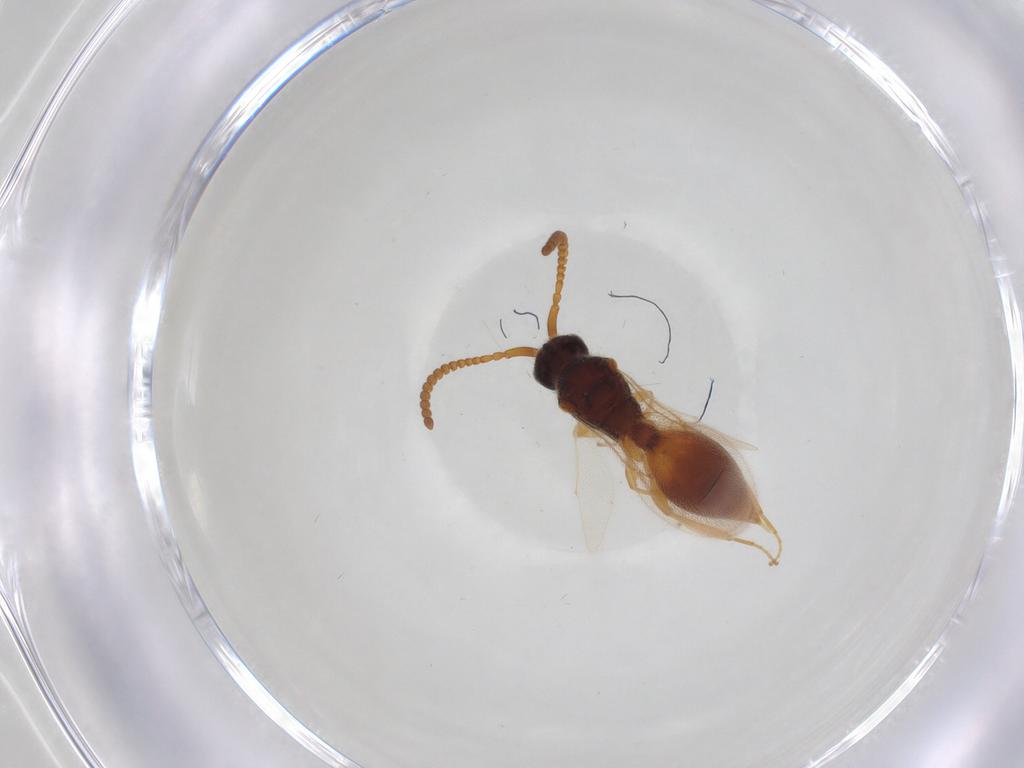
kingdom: Animalia
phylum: Arthropoda
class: Insecta
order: Hymenoptera
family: Diapriidae
